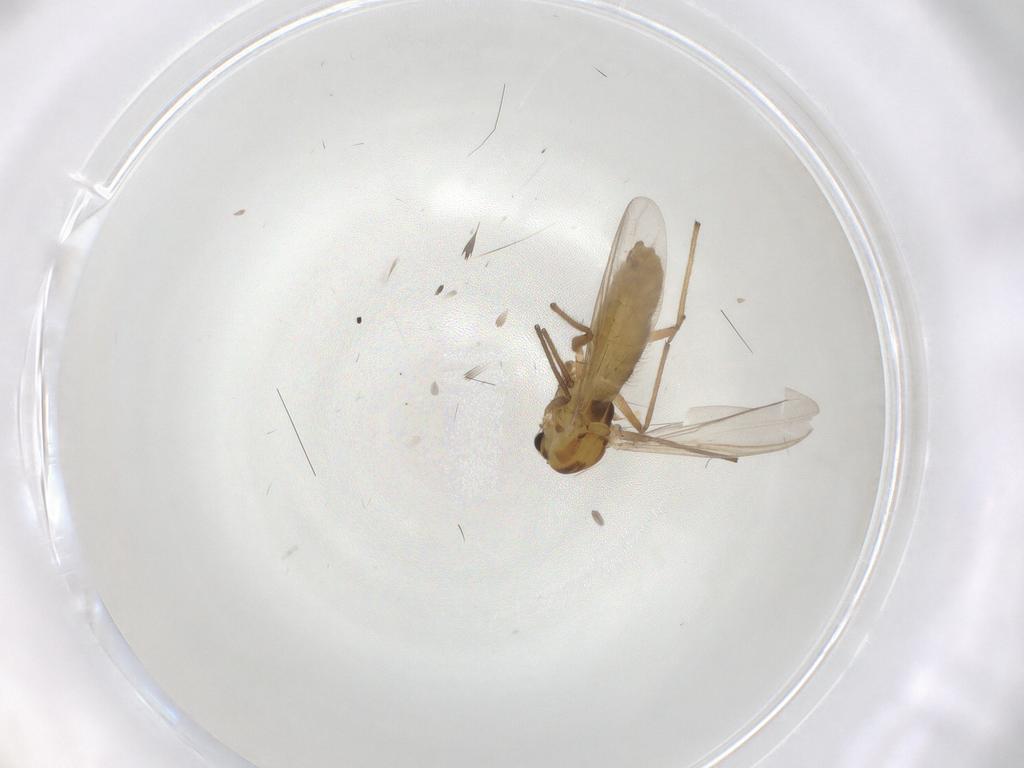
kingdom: Animalia
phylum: Arthropoda
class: Insecta
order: Diptera
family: Chironomidae
